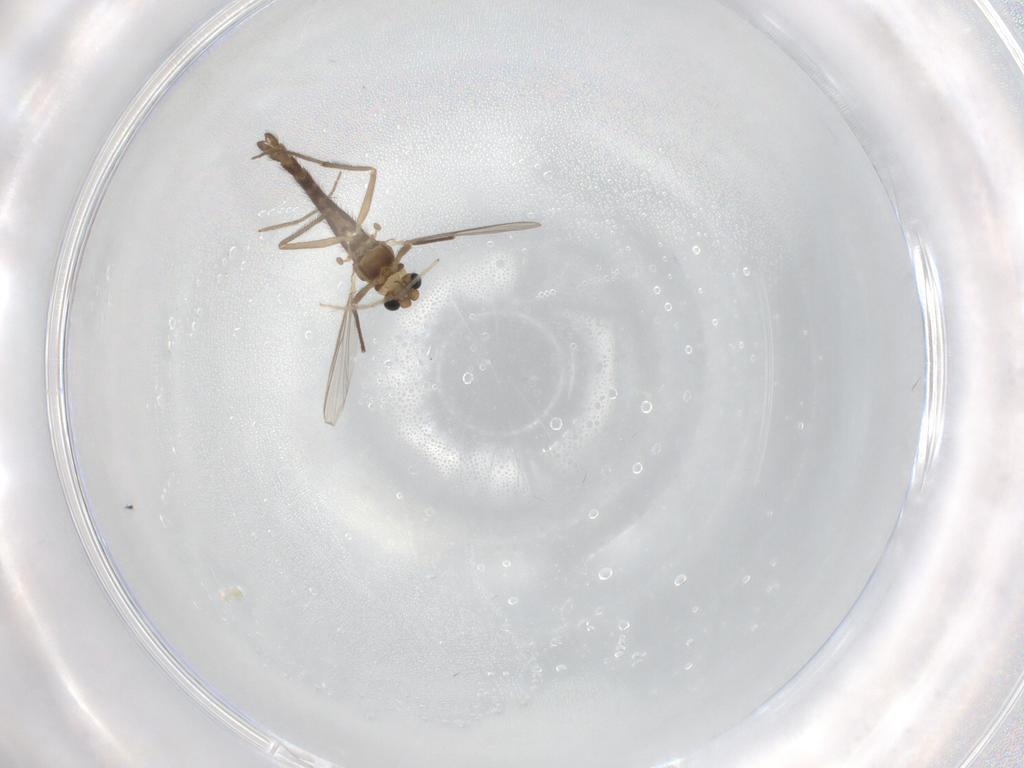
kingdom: Animalia
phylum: Arthropoda
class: Insecta
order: Diptera
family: Chironomidae
